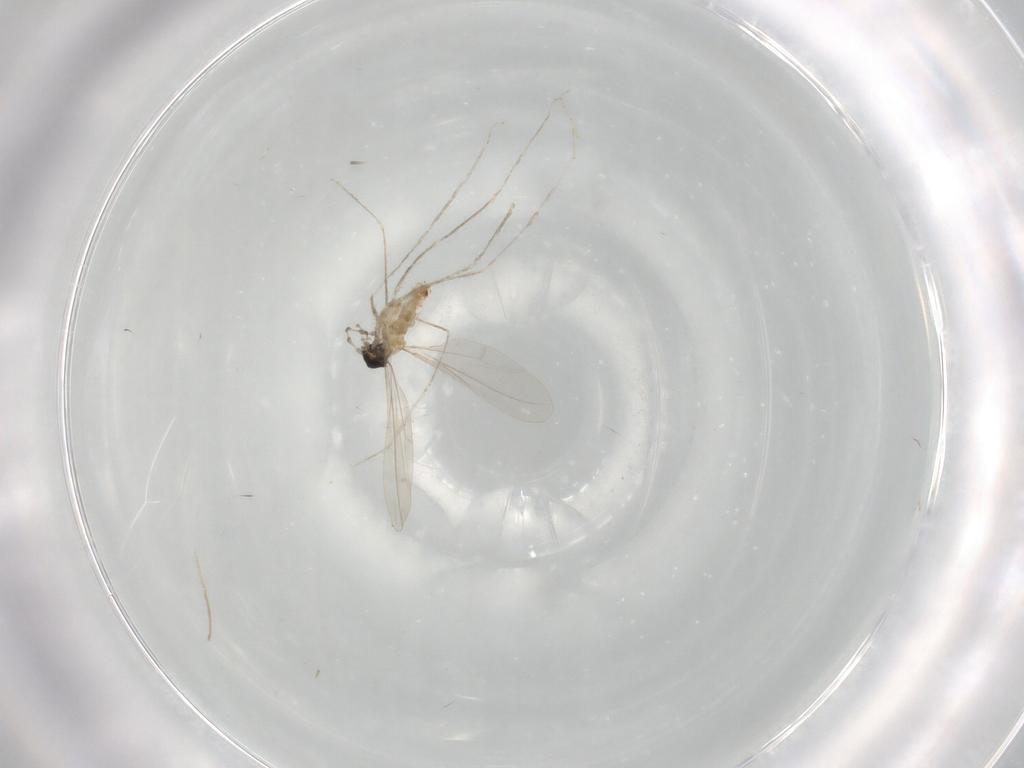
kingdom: Animalia
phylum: Arthropoda
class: Insecta
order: Diptera
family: Cecidomyiidae
